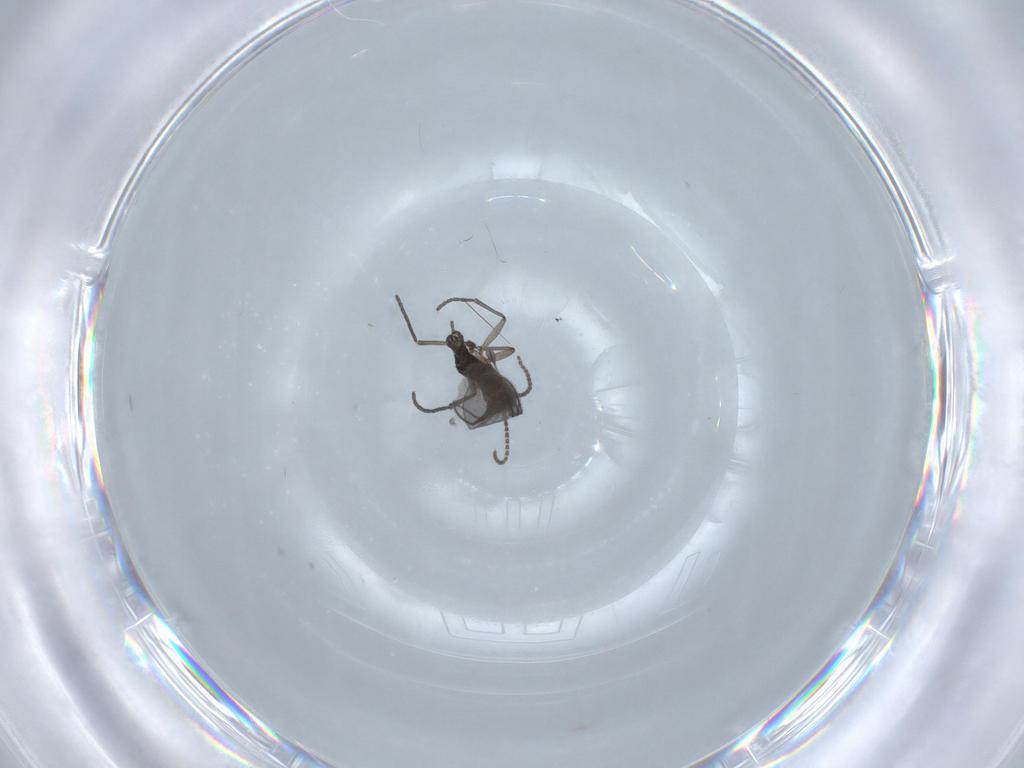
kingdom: Animalia
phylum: Arthropoda
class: Insecta
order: Diptera
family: Psychodidae
